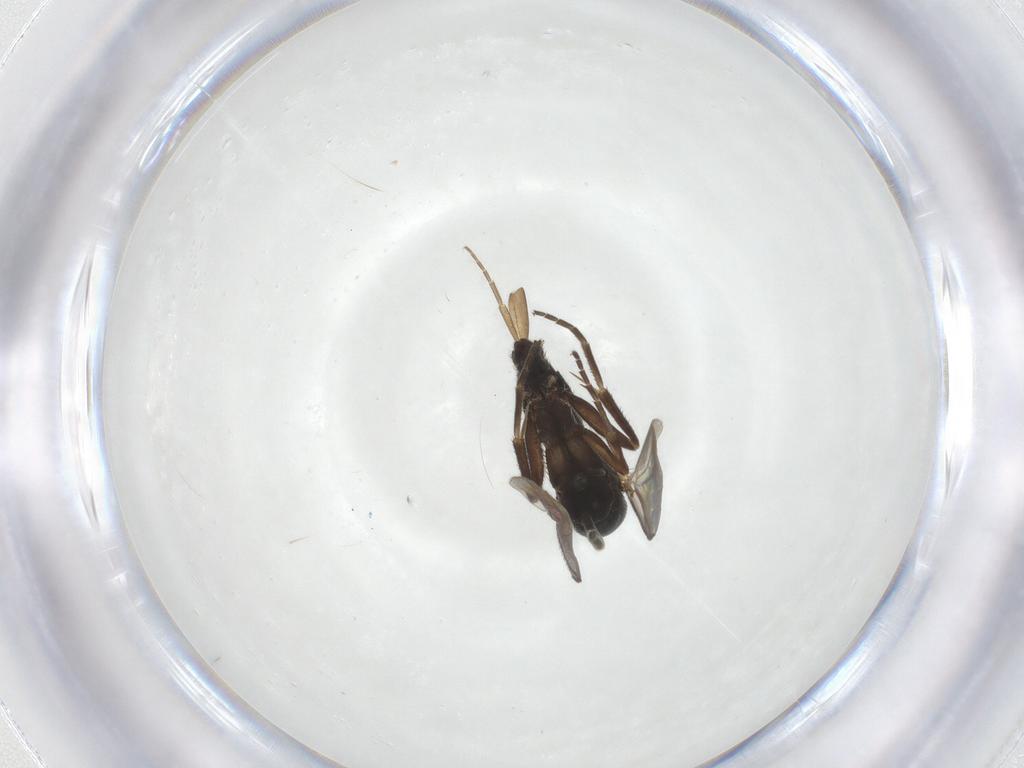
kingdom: Animalia
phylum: Arthropoda
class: Insecta
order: Diptera
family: Mycetophilidae
